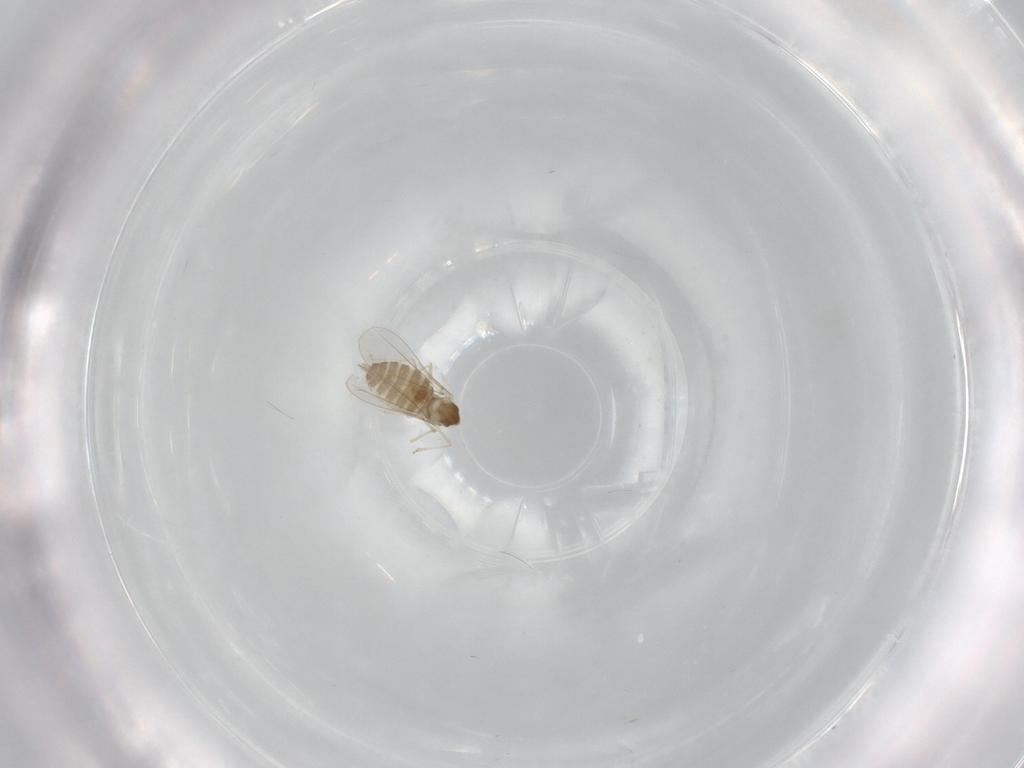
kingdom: Animalia
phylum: Arthropoda
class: Insecta
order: Diptera
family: Cecidomyiidae
